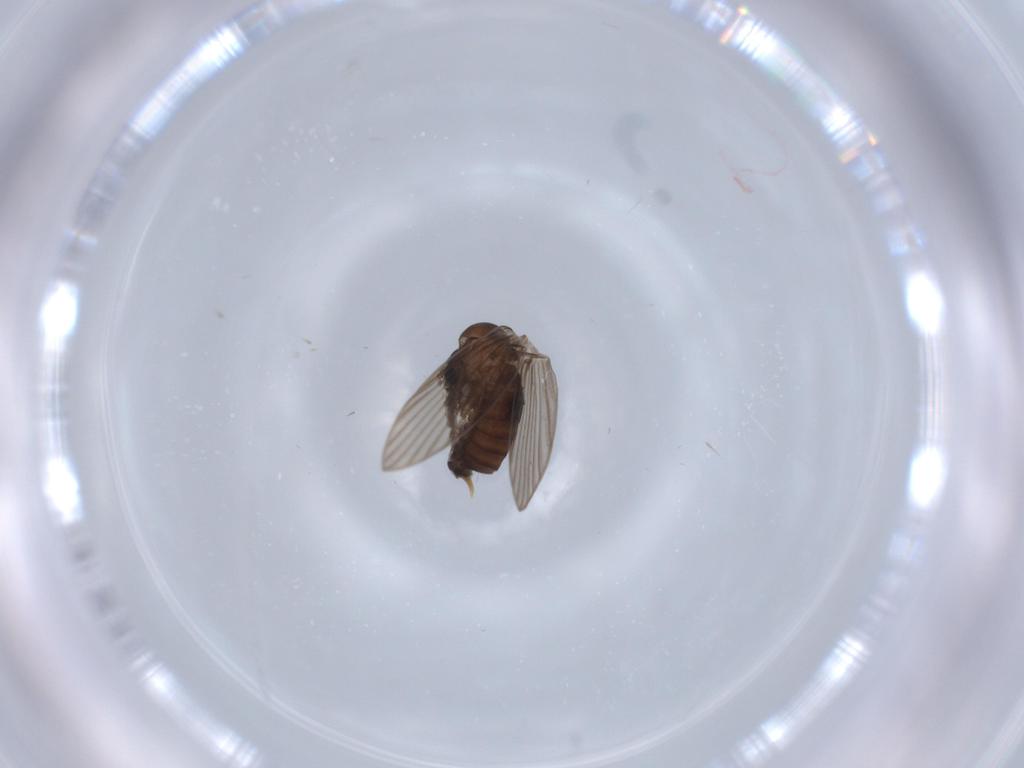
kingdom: Animalia
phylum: Arthropoda
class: Insecta
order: Diptera
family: Psychodidae
